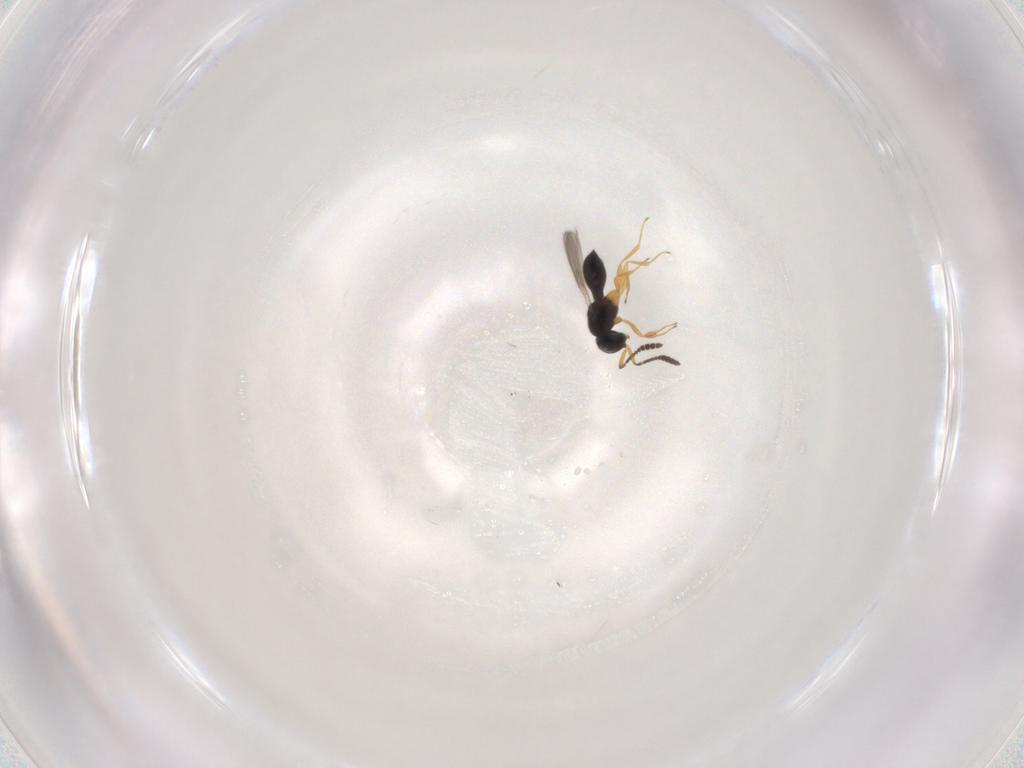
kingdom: Animalia
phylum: Arthropoda
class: Insecta
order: Hymenoptera
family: Scelionidae
